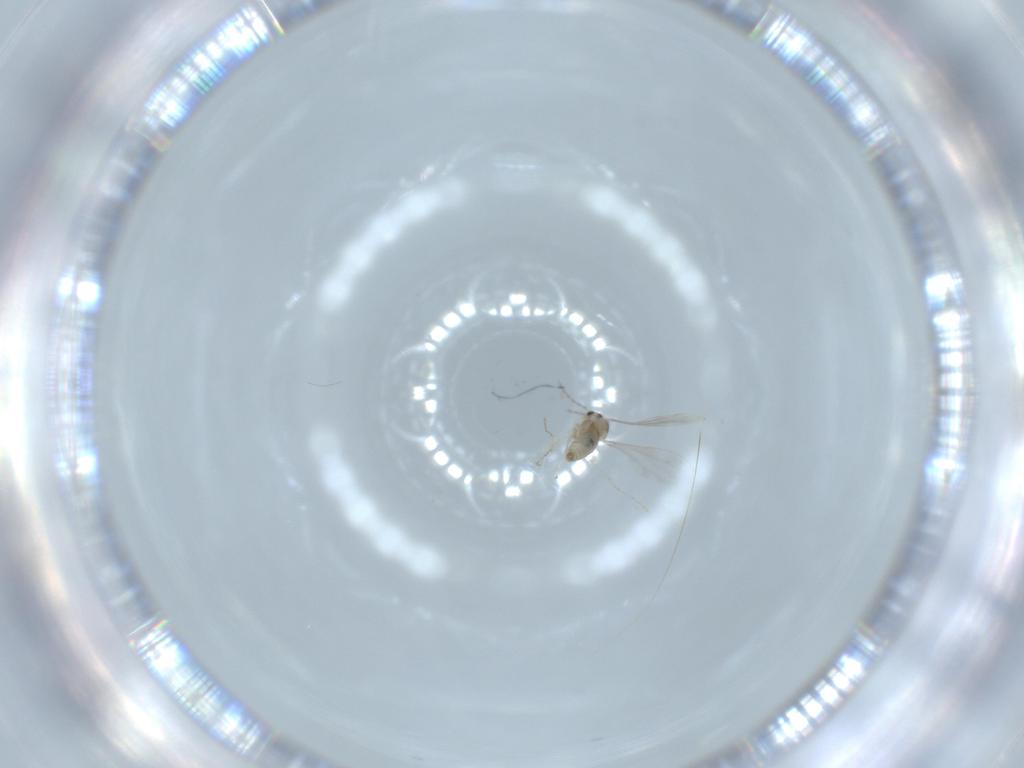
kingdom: Animalia
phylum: Arthropoda
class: Insecta
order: Diptera
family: Cecidomyiidae
